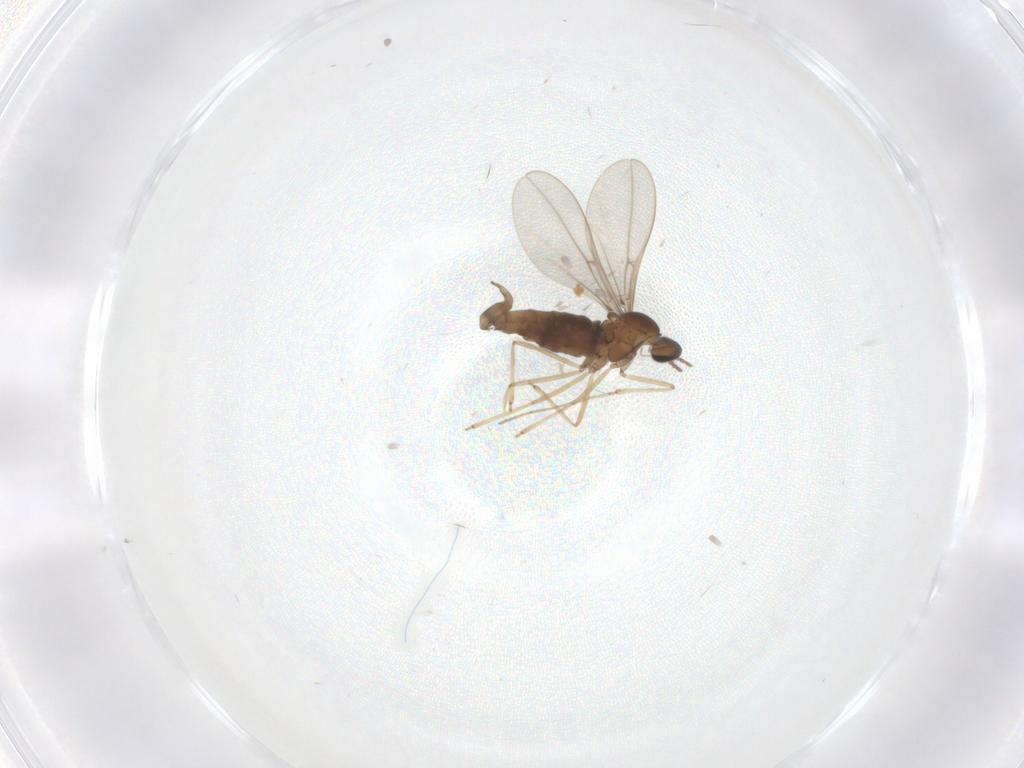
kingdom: Animalia
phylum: Arthropoda
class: Insecta
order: Diptera
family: Cecidomyiidae
